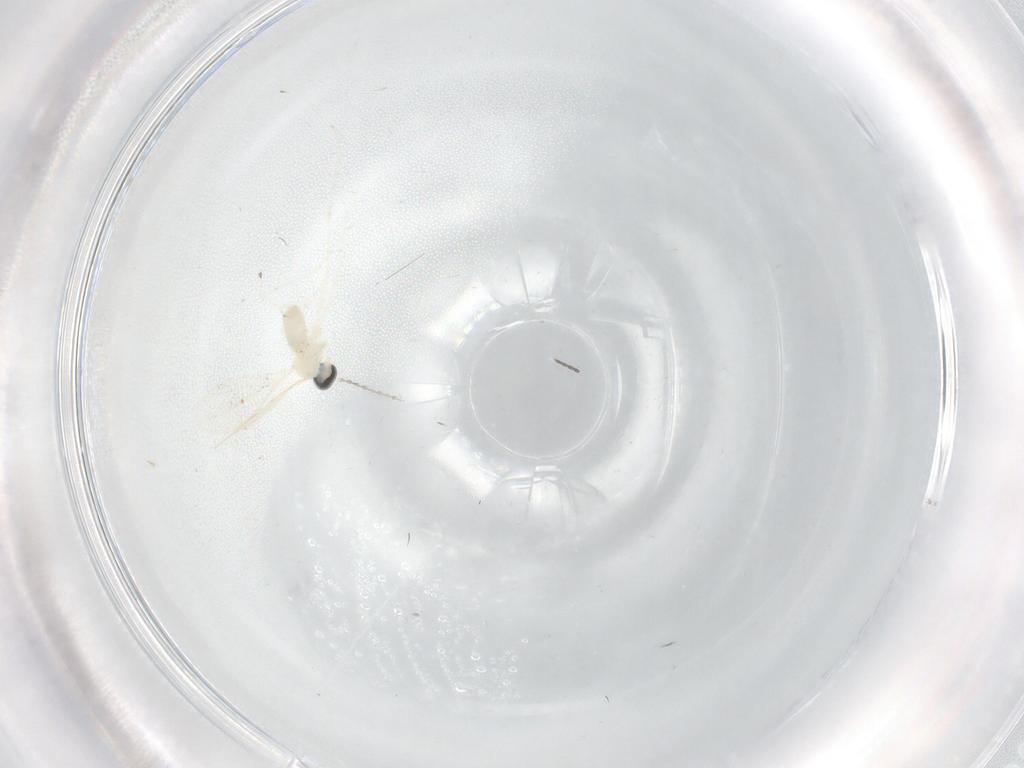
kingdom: Animalia
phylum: Arthropoda
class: Insecta
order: Diptera
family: Cecidomyiidae
